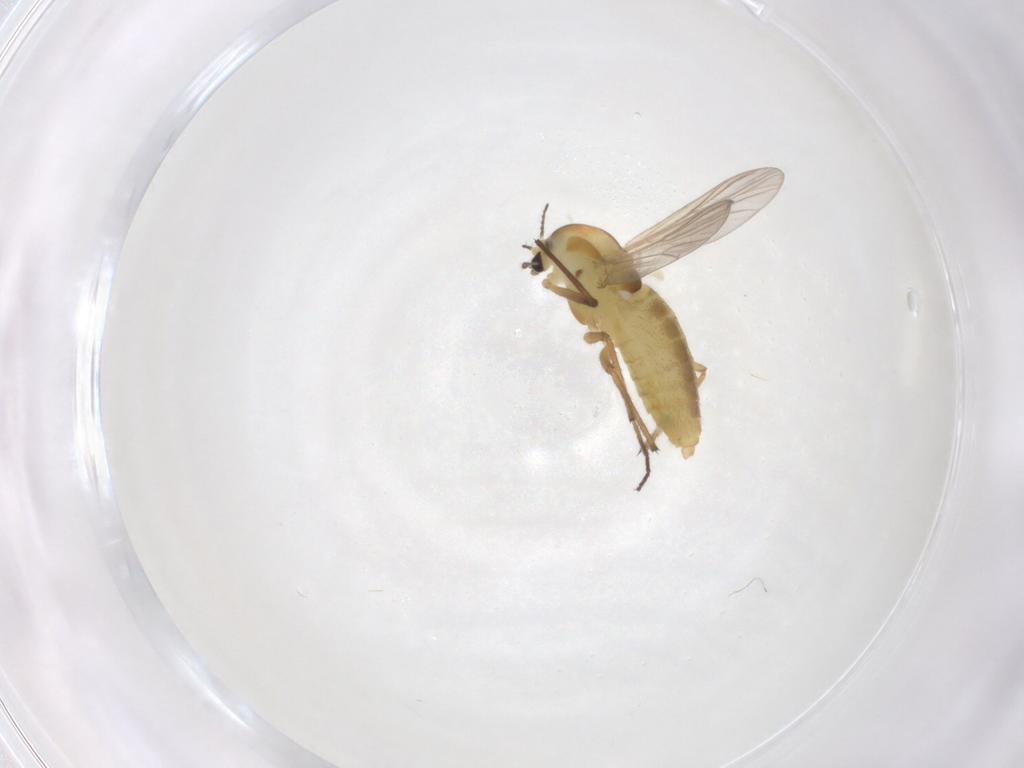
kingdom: Animalia
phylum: Arthropoda
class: Insecta
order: Diptera
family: Chironomidae
